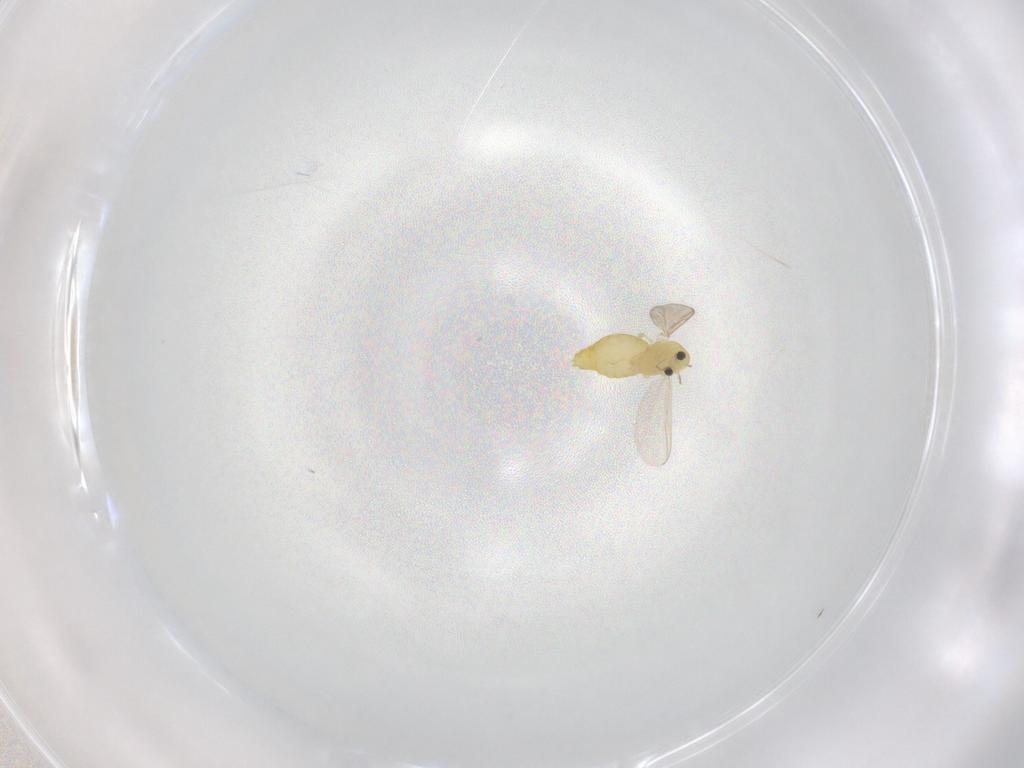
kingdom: Animalia
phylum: Arthropoda
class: Insecta
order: Diptera
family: Chironomidae
